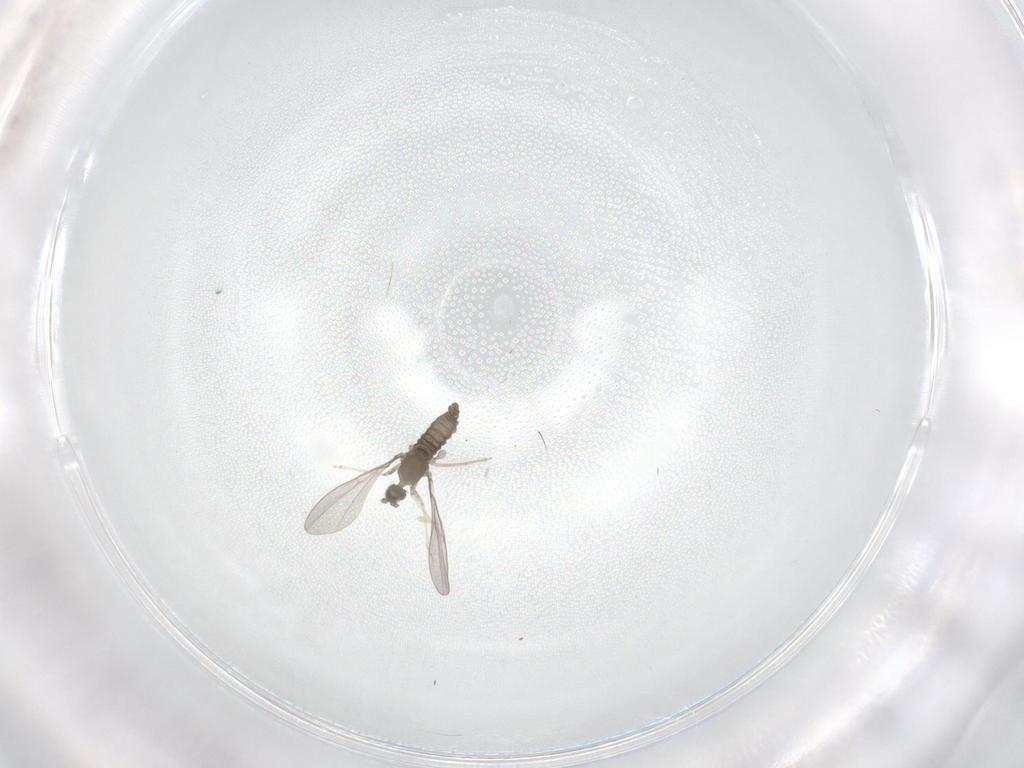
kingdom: Animalia
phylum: Arthropoda
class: Insecta
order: Diptera
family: Cecidomyiidae
